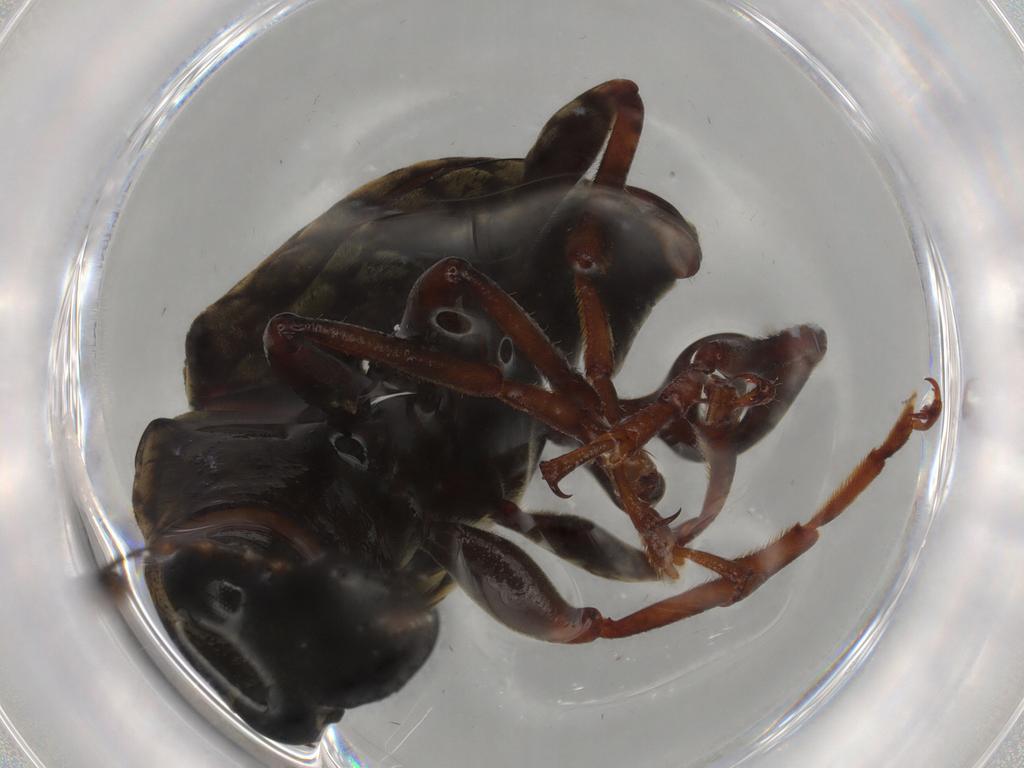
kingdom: Animalia
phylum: Arthropoda
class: Insecta
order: Coleoptera
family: Anthribidae
